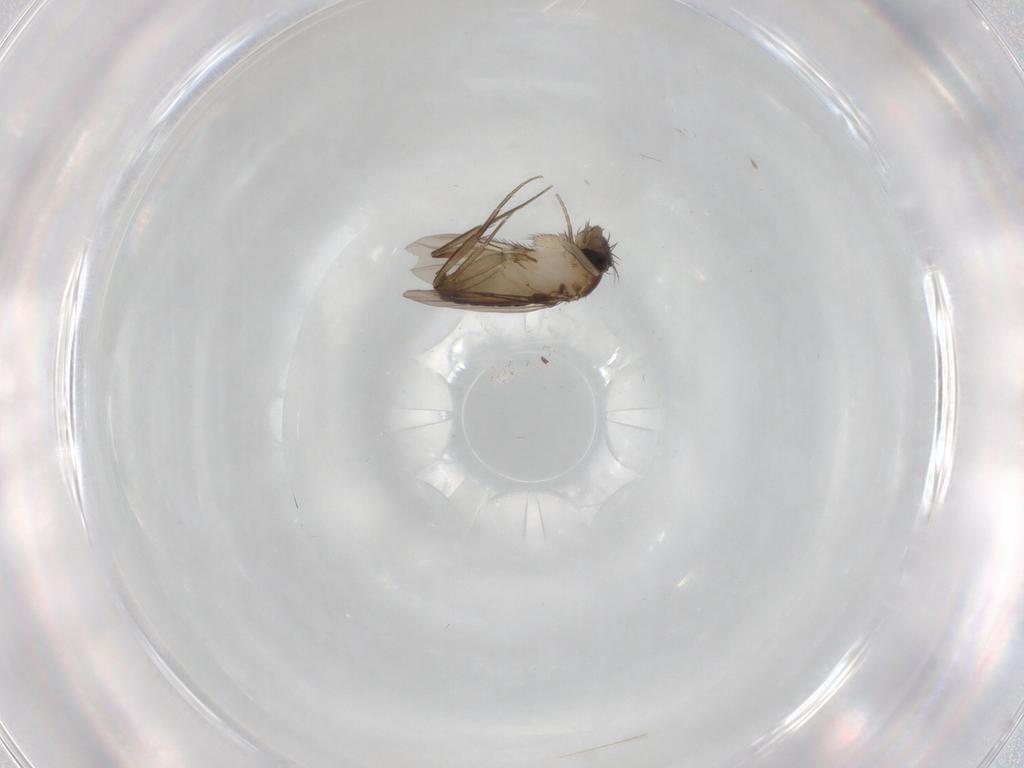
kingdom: Animalia
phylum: Arthropoda
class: Insecta
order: Diptera
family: Phoridae
